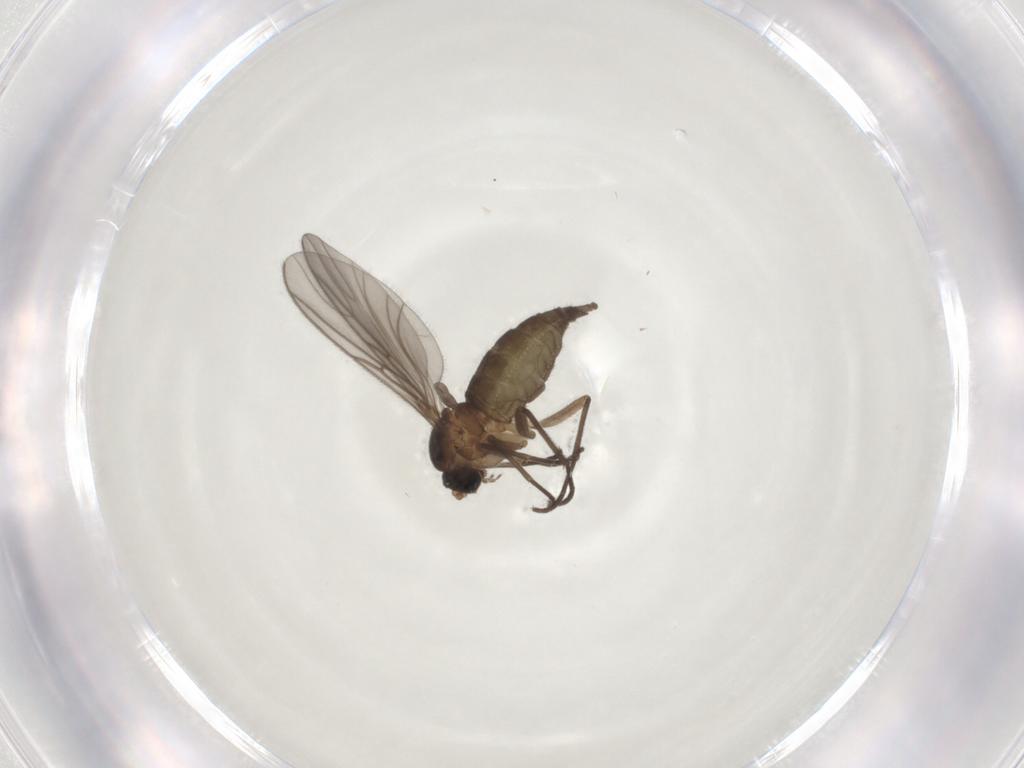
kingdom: Animalia
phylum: Arthropoda
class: Insecta
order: Diptera
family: Sciaridae
